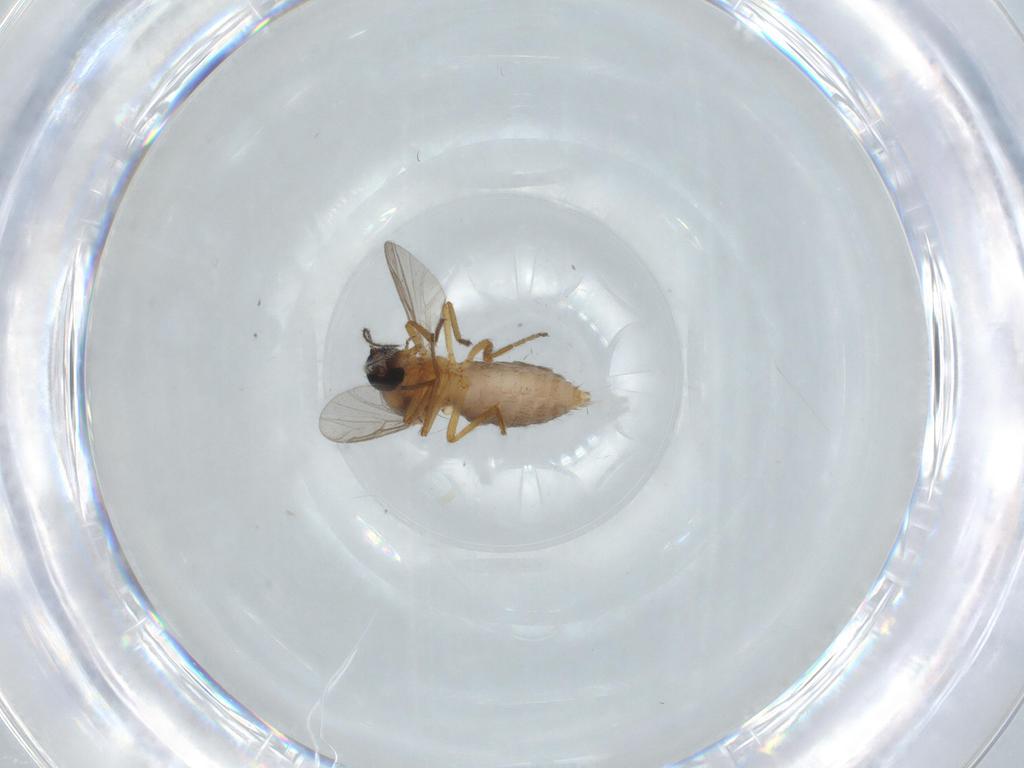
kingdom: Animalia
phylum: Arthropoda
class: Insecta
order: Diptera
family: Ceratopogonidae
